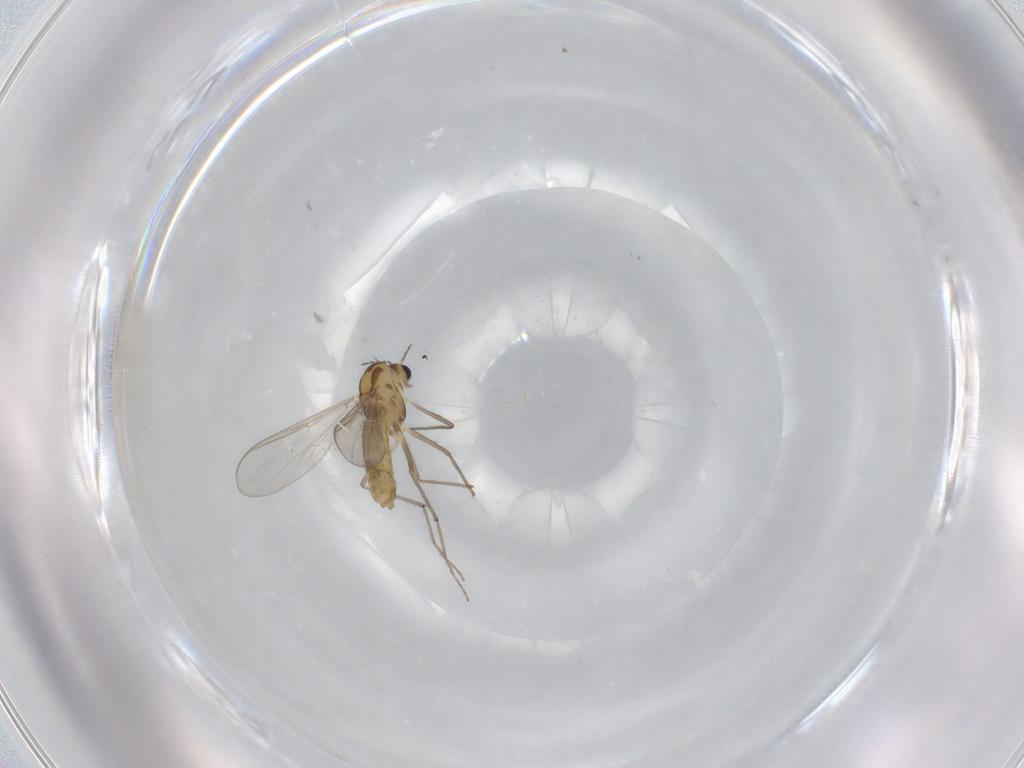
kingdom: Animalia
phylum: Arthropoda
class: Insecta
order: Diptera
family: Chironomidae
